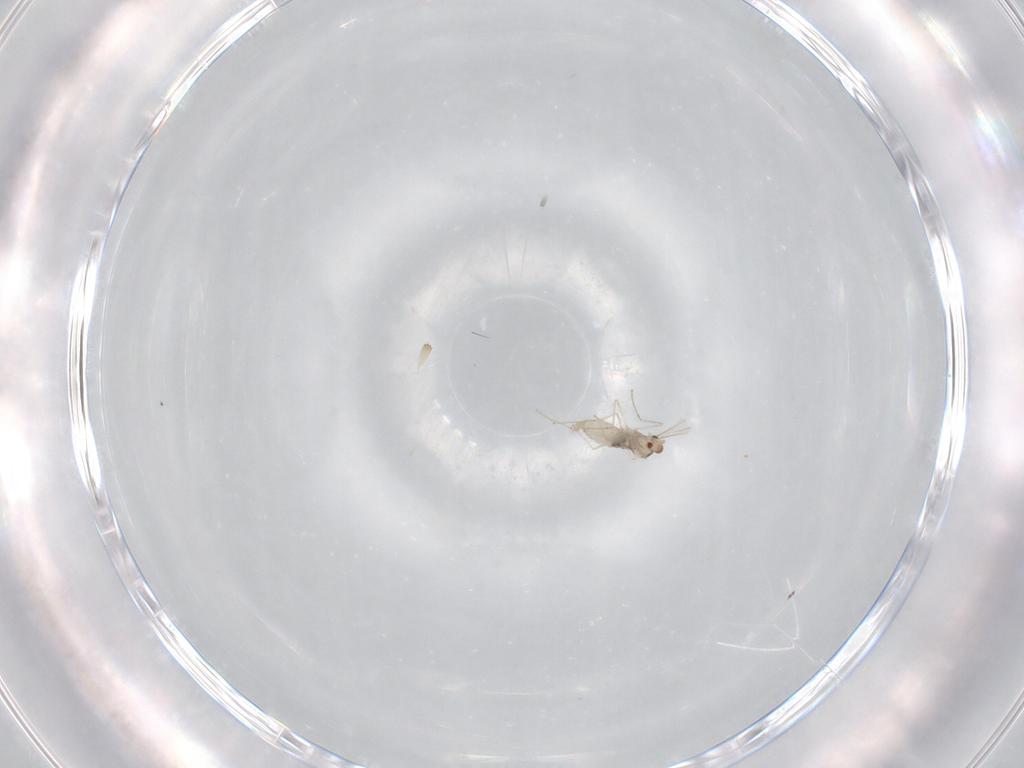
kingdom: Animalia
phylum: Arthropoda
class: Insecta
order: Diptera
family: Cecidomyiidae
